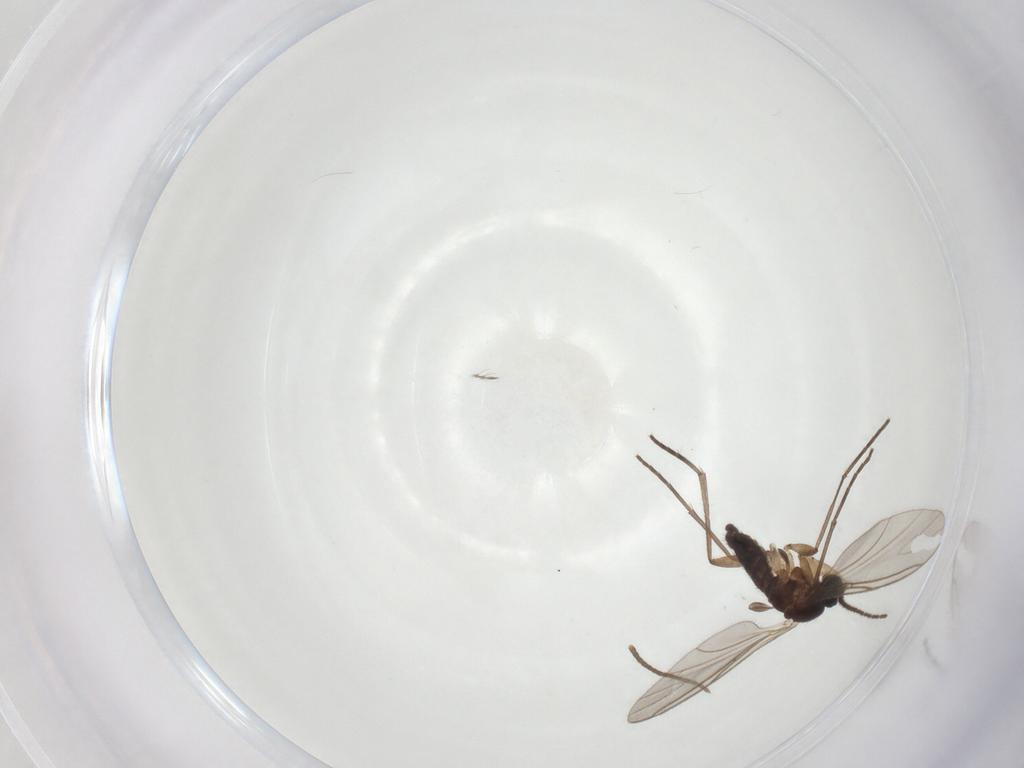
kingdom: Animalia
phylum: Arthropoda
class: Insecta
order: Diptera
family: Sciaridae
